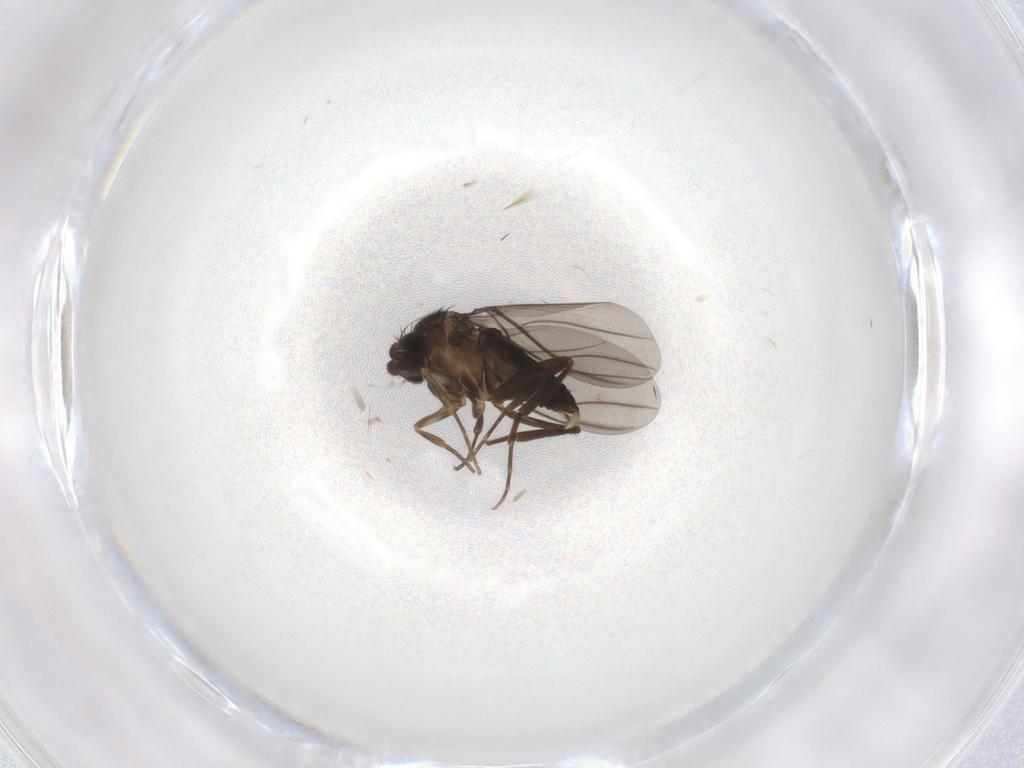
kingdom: Animalia
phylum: Arthropoda
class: Insecta
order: Diptera
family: Phoridae
